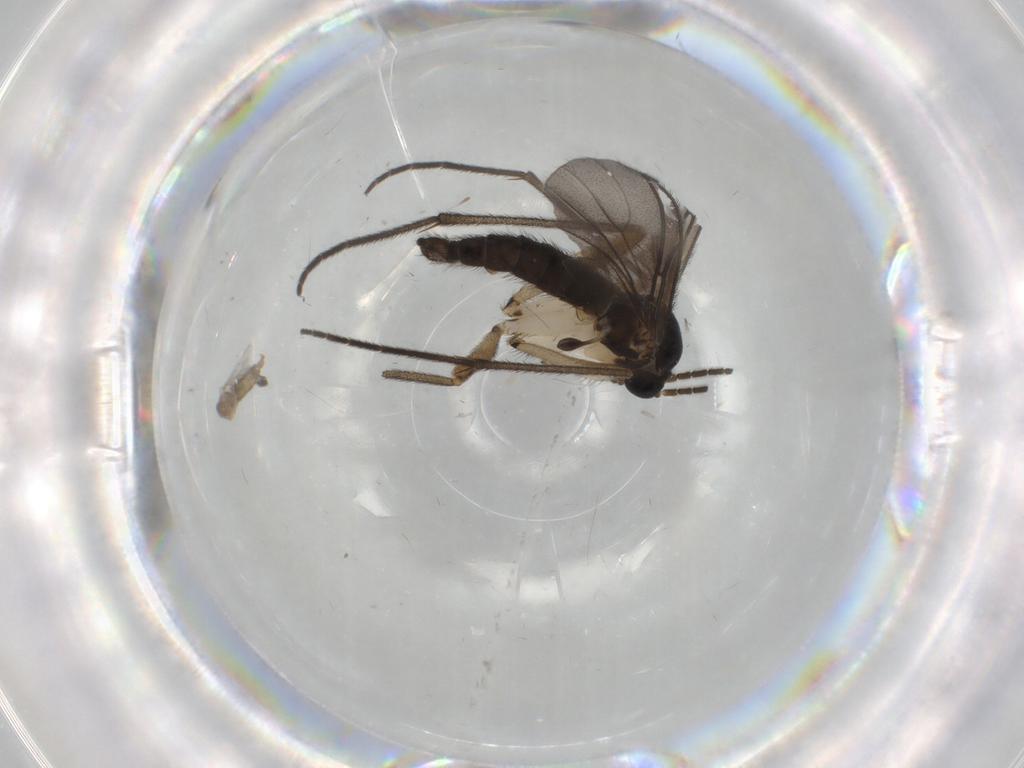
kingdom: Animalia
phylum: Arthropoda
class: Insecta
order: Diptera
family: Sciaridae
